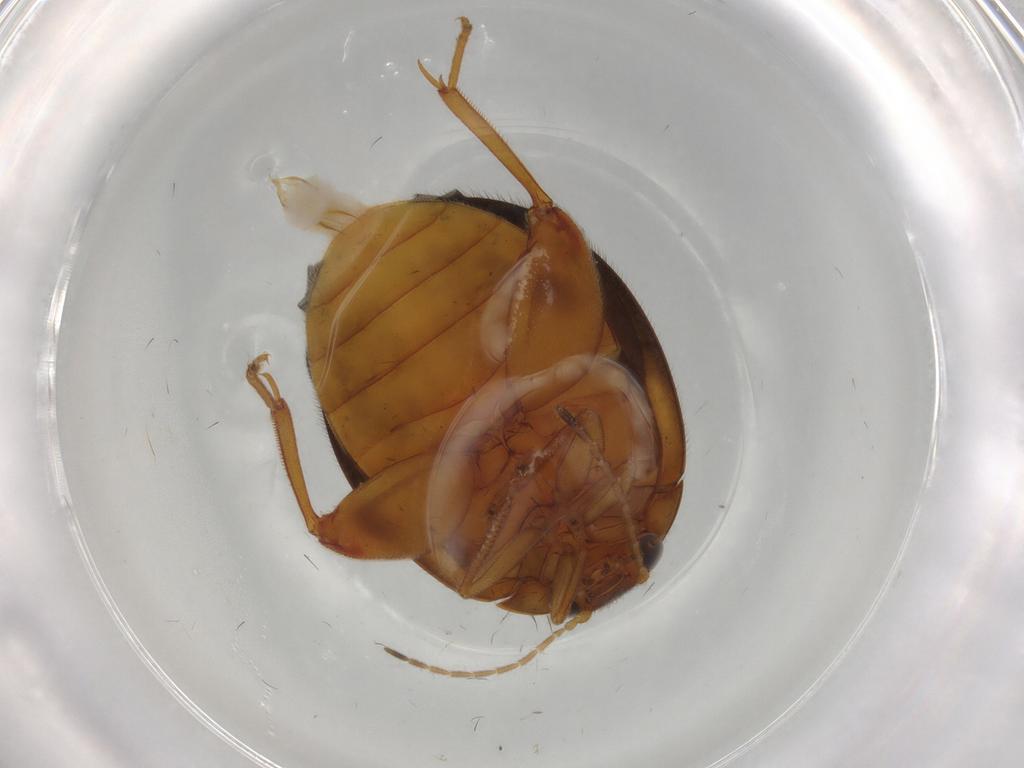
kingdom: Animalia
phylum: Arthropoda
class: Insecta
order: Coleoptera
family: Scirtidae
